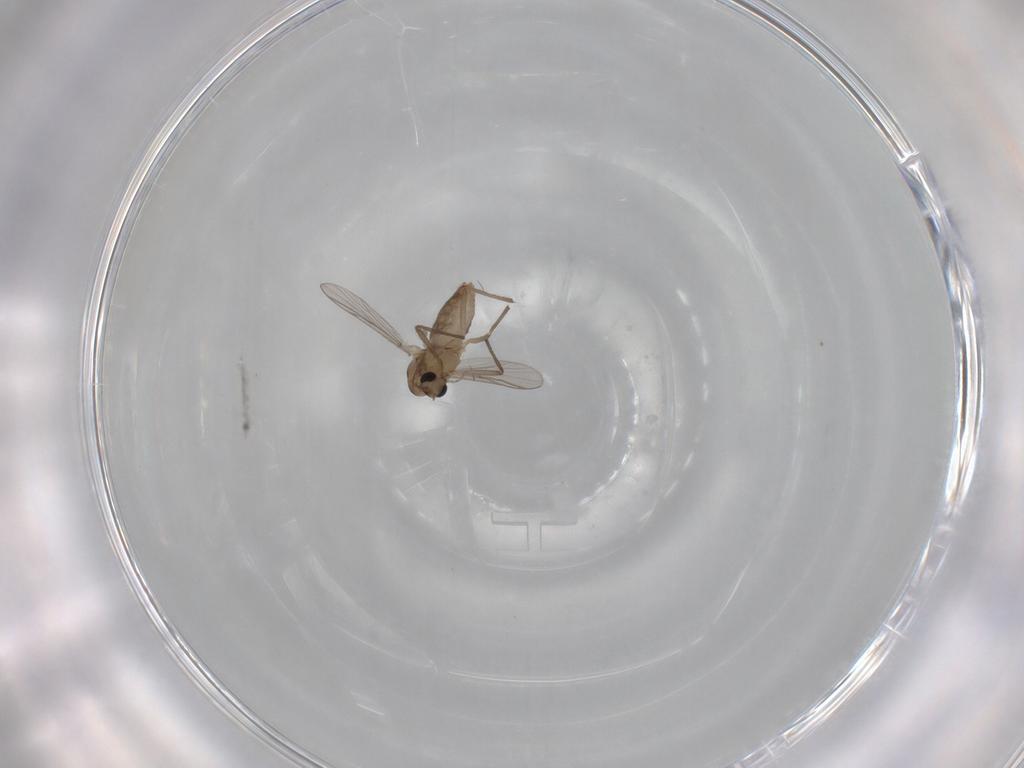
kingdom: Animalia
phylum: Arthropoda
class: Insecta
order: Diptera
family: Chironomidae
